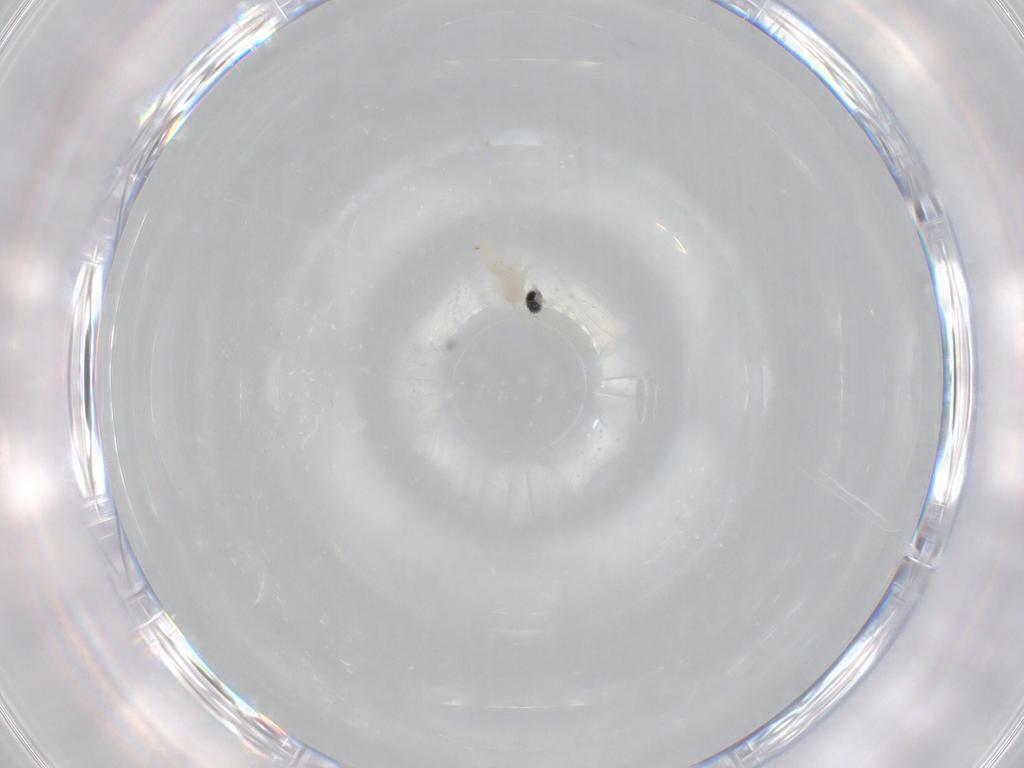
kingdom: Animalia
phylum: Arthropoda
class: Insecta
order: Diptera
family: Cecidomyiidae
